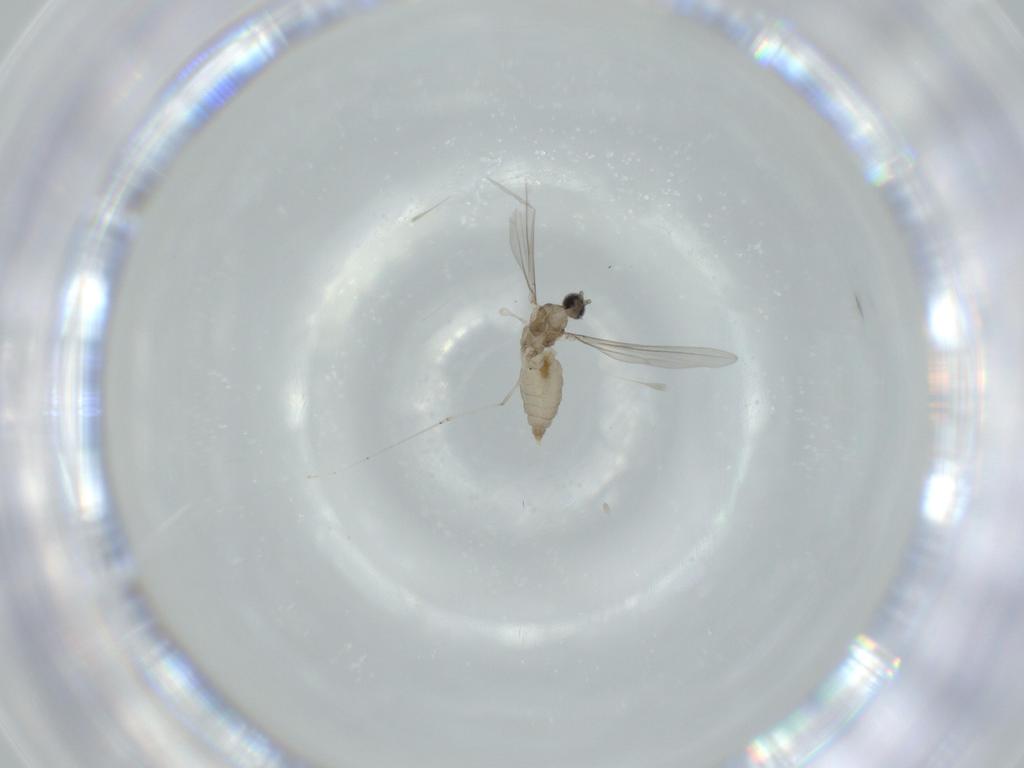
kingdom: Animalia
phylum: Arthropoda
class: Insecta
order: Diptera
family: Cecidomyiidae
